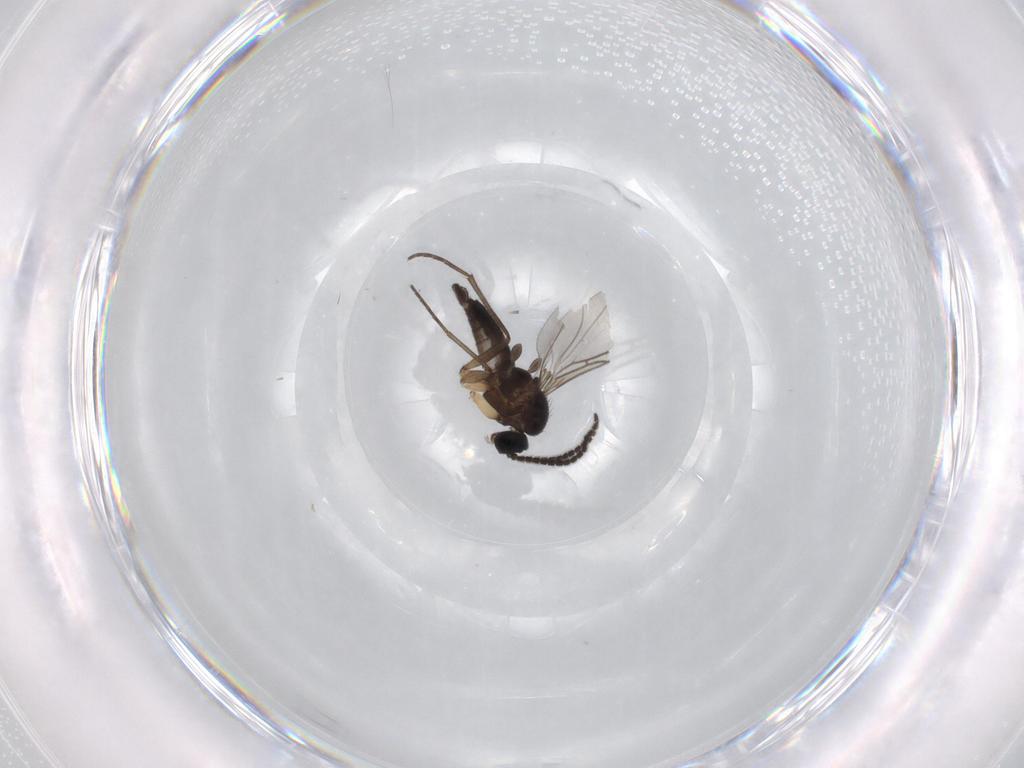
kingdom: Animalia
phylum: Arthropoda
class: Insecta
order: Diptera
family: Sciaridae
